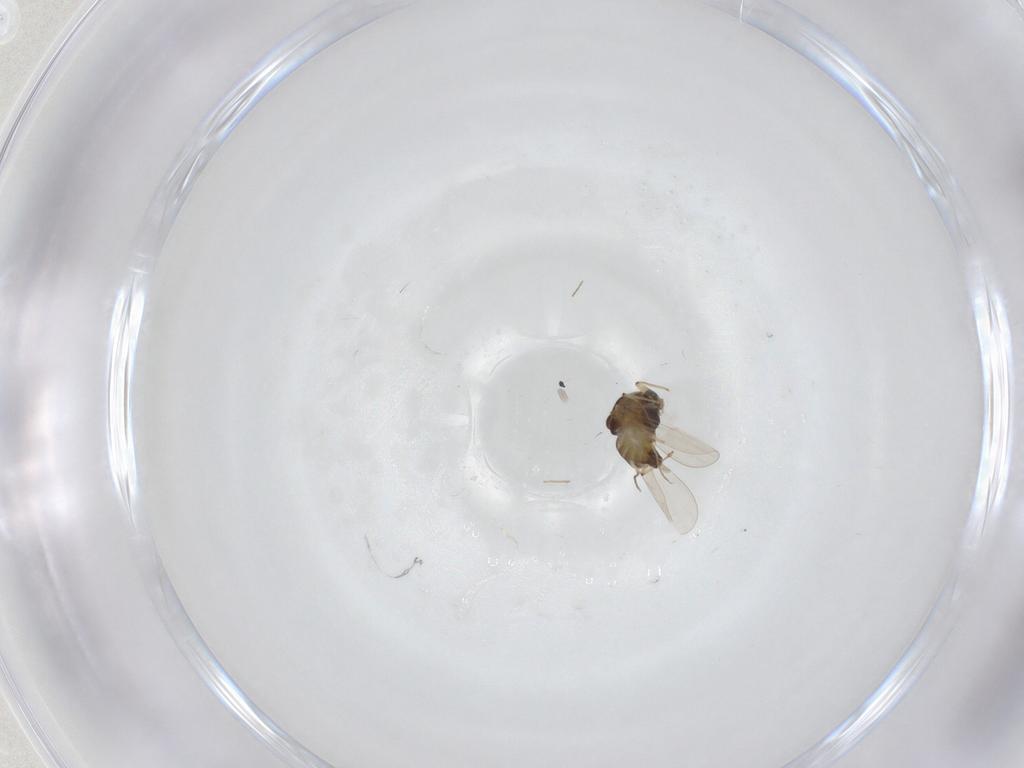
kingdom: Animalia
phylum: Arthropoda
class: Insecta
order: Diptera
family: Chironomidae
